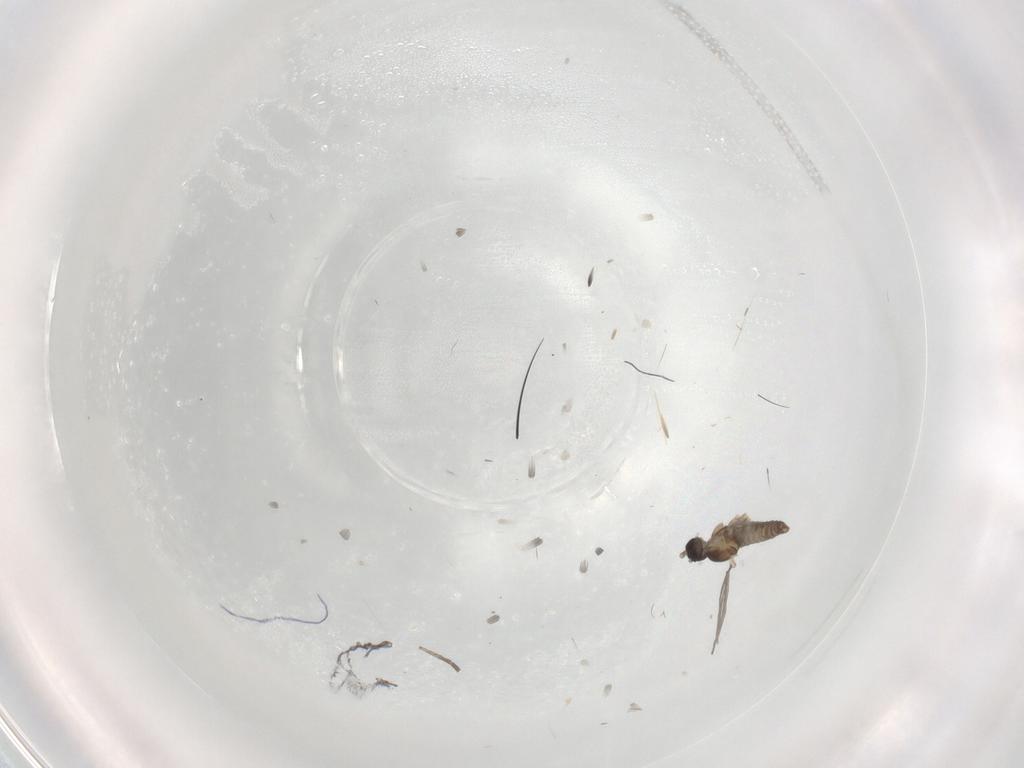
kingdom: Animalia
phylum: Arthropoda
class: Insecta
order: Diptera
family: Cecidomyiidae
